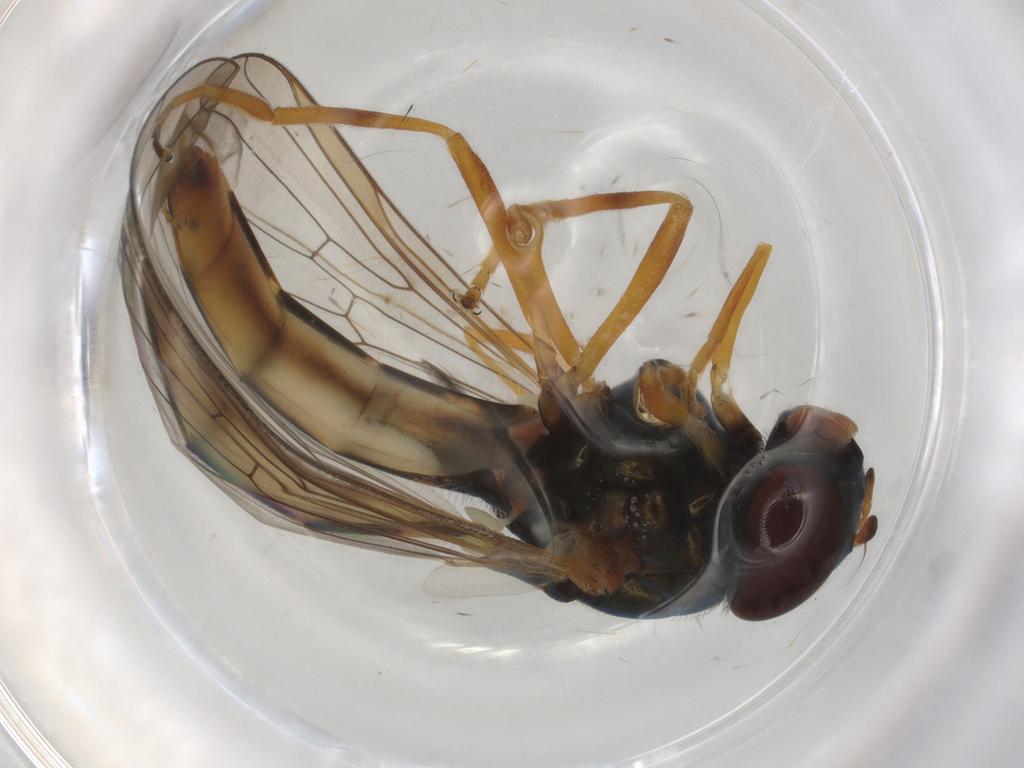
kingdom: Animalia
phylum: Arthropoda
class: Insecta
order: Diptera
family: Syrphidae
